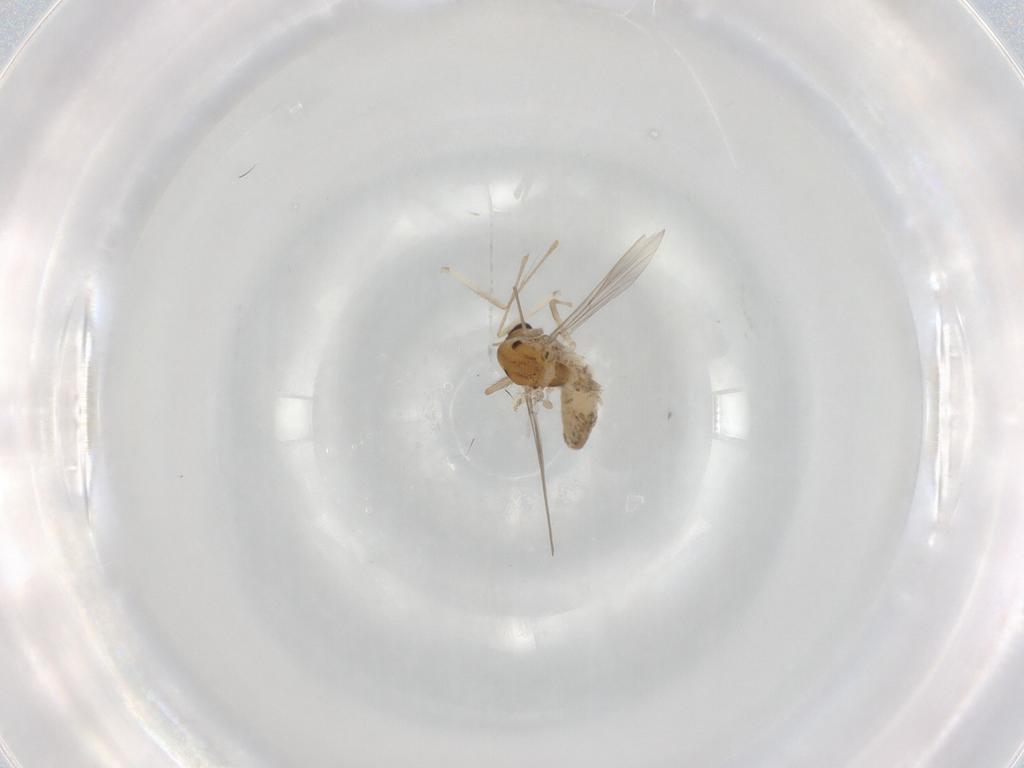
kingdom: Animalia
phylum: Arthropoda
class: Insecta
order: Diptera
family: Chironomidae
